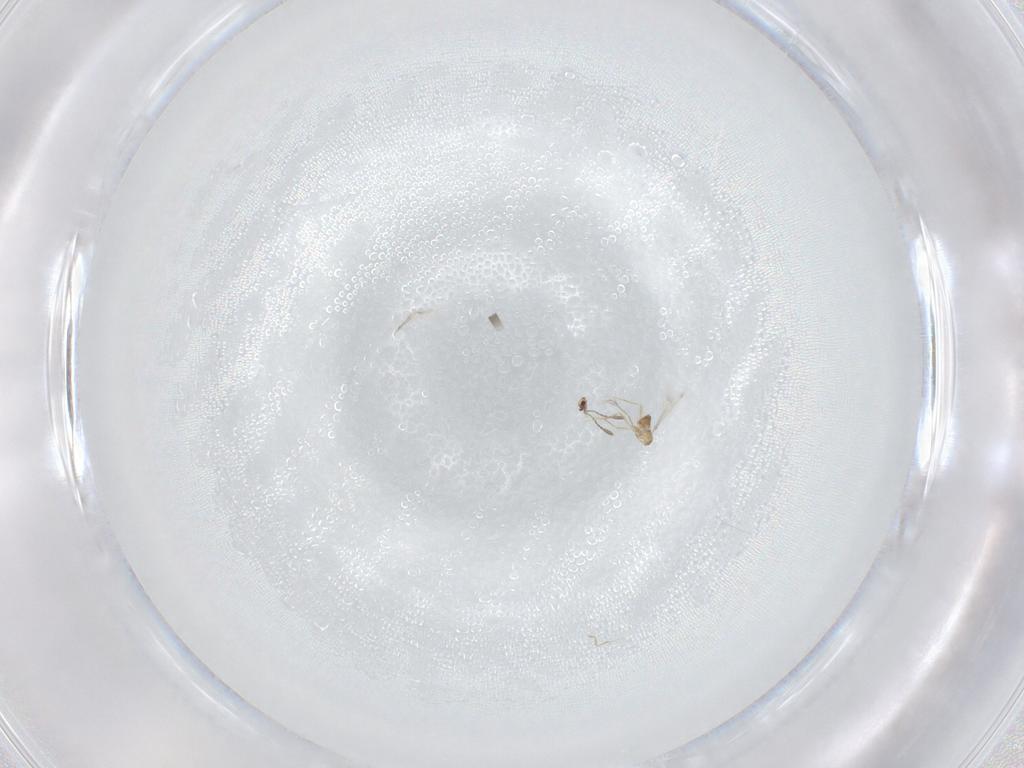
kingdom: Animalia
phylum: Arthropoda
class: Insecta
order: Hymenoptera
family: Mymaridae
